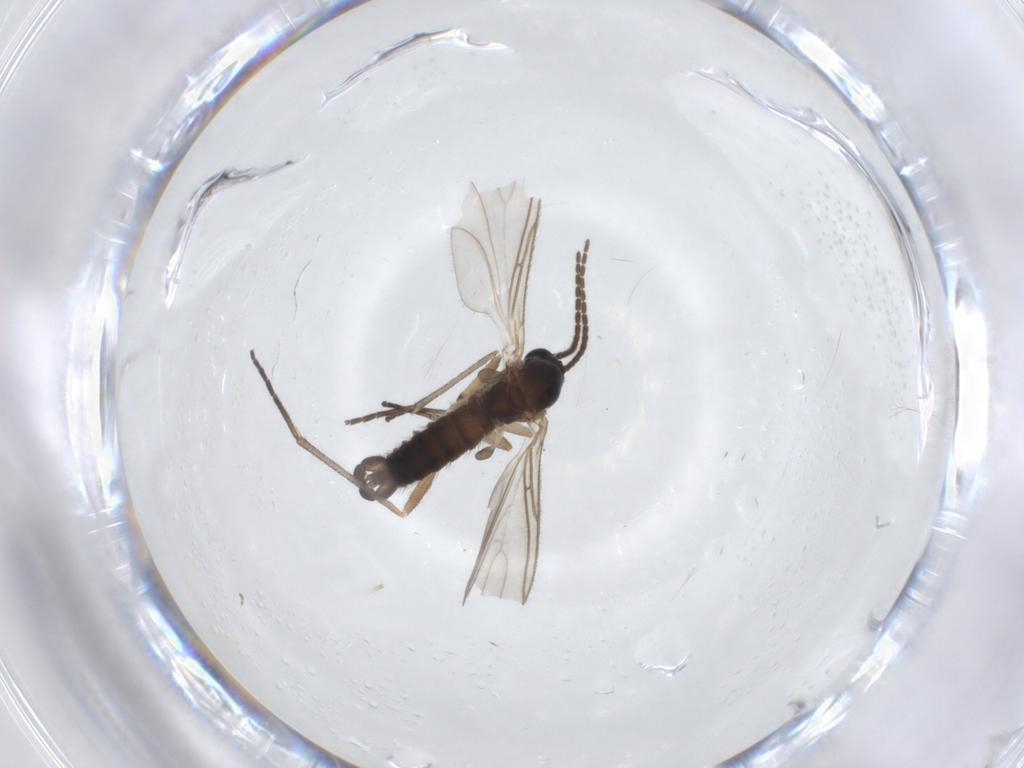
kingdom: Animalia
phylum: Arthropoda
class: Insecta
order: Diptera
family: Sciaridae
